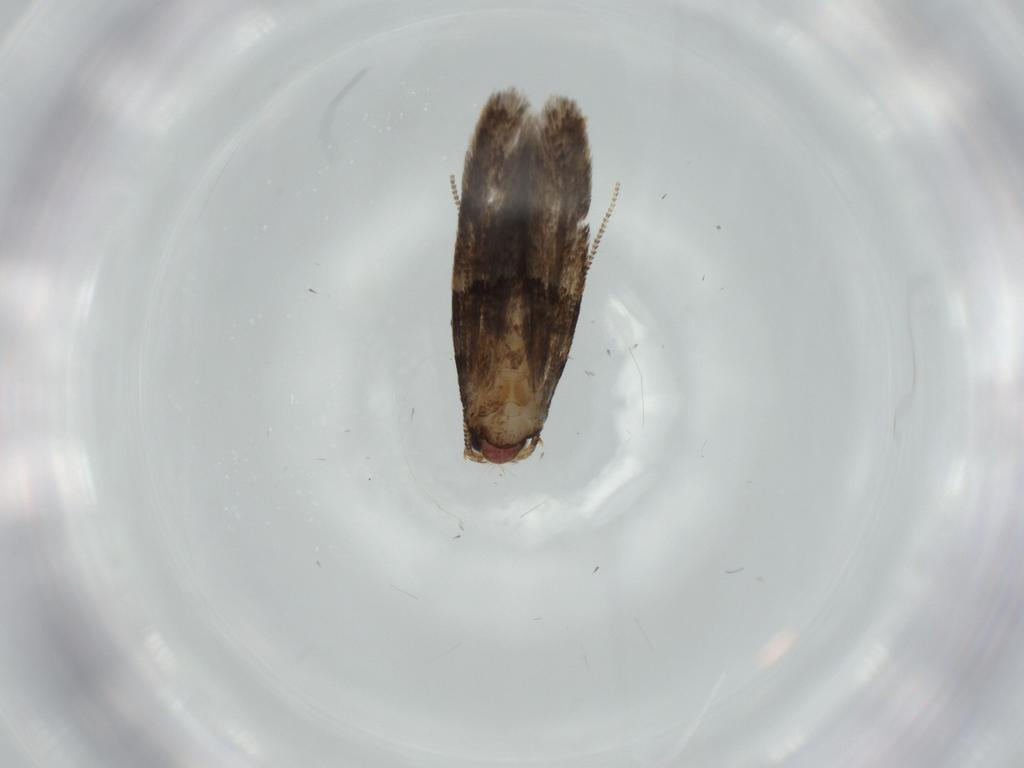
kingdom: Animalia
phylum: Arthropoda
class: Insecta
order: Lepidoptera
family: Tineidae
